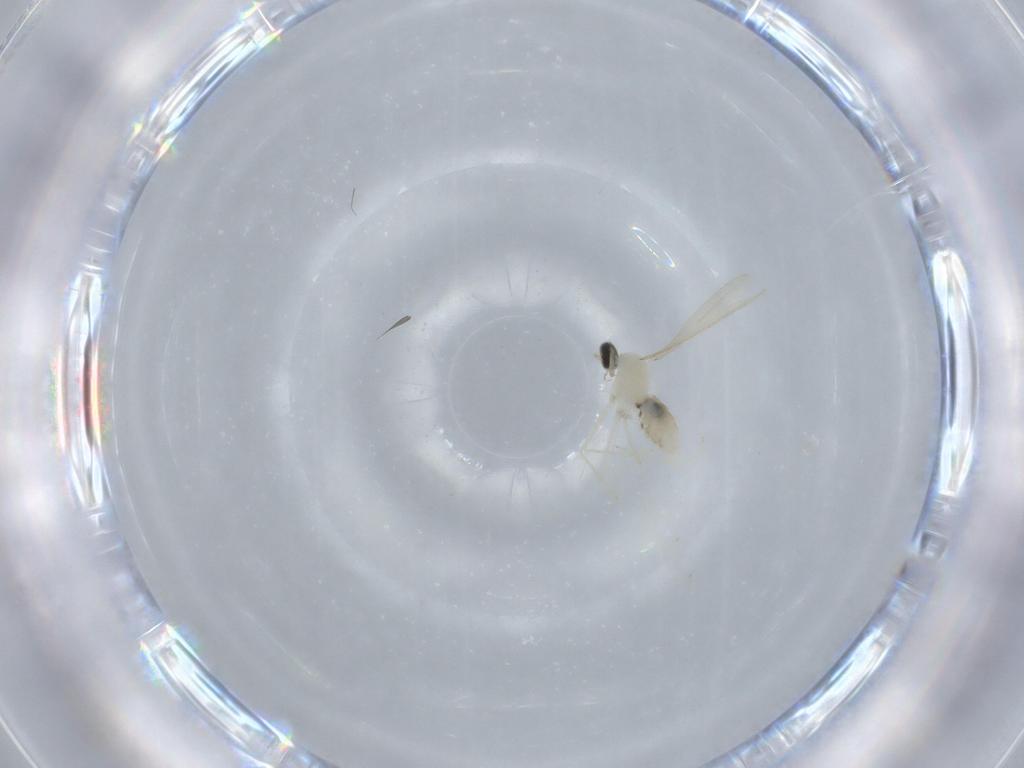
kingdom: Animalia
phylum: Arthropoda
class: Insecta
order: Diptera
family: Cecidomyiidae
